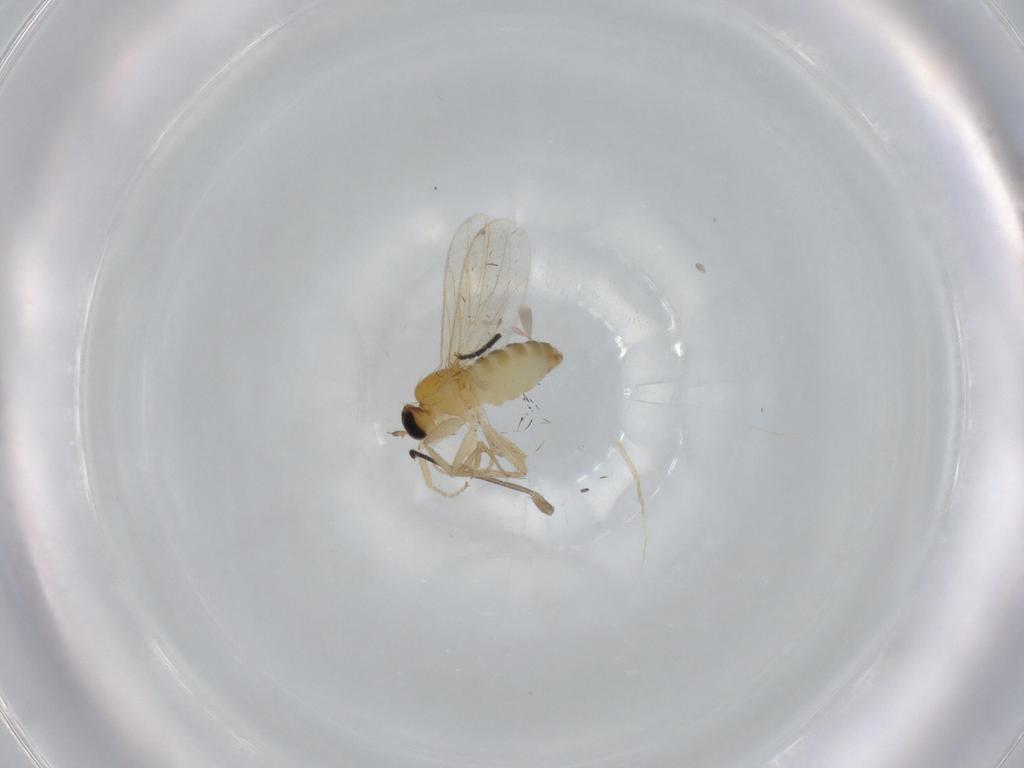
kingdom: Animalia
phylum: Arthropoda
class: Insecta
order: Diptera
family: Hybotidae
